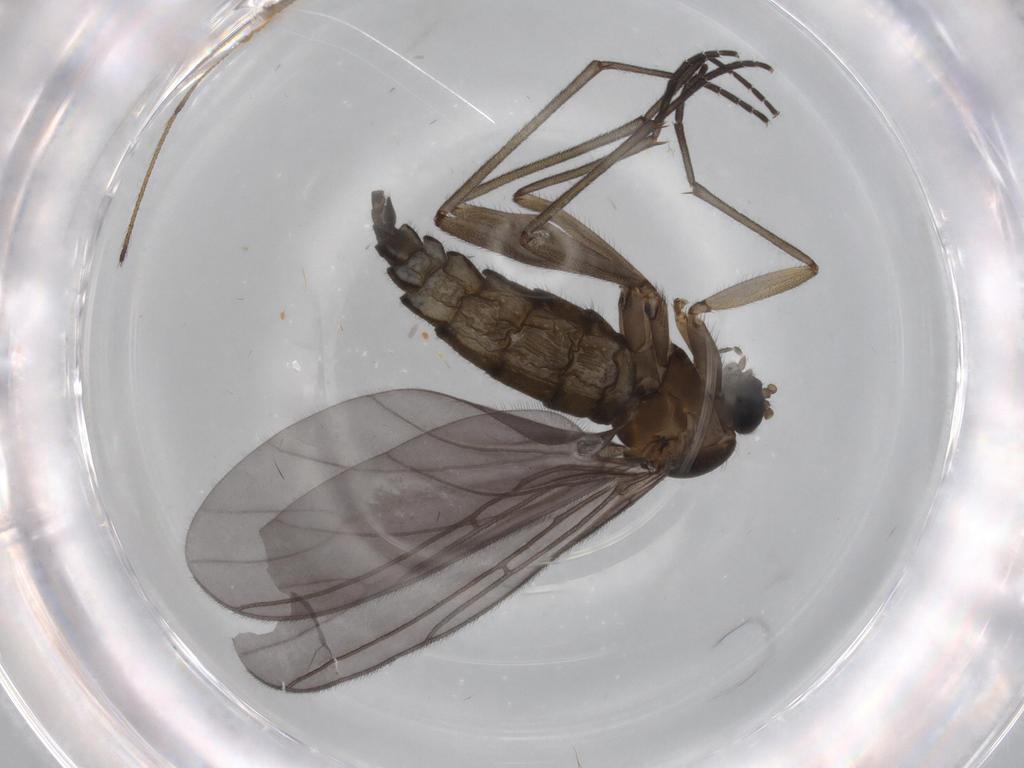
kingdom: Animalia
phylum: Arthropoda
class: Insecta
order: Diptera
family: Sciaridae
